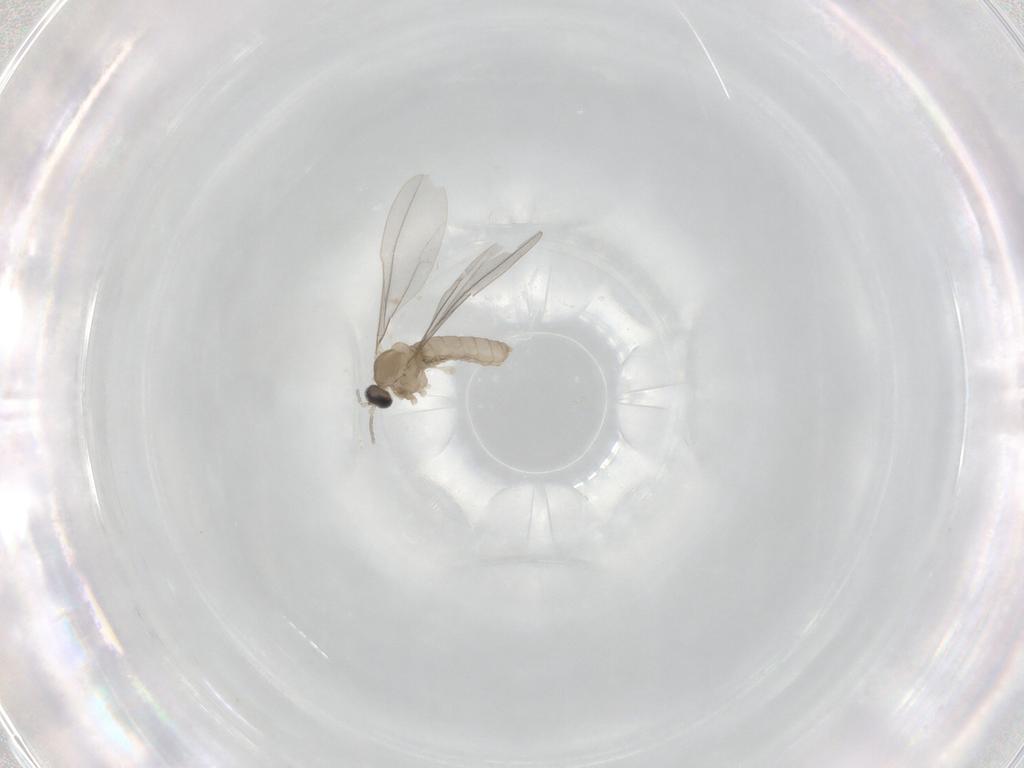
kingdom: Animalia
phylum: Arthropoda
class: Insecta
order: Diptera
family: Cecidomyiidae
